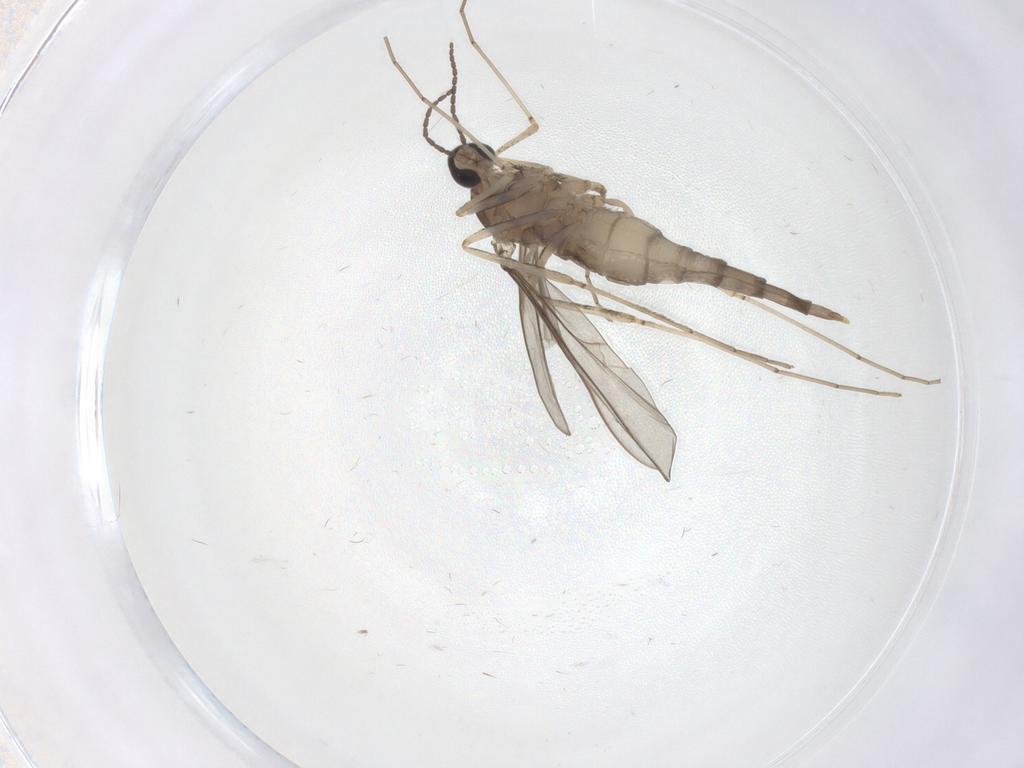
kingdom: Animalia
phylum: Arthropoda
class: Insecta
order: Diptera
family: Cecidomyiidae
